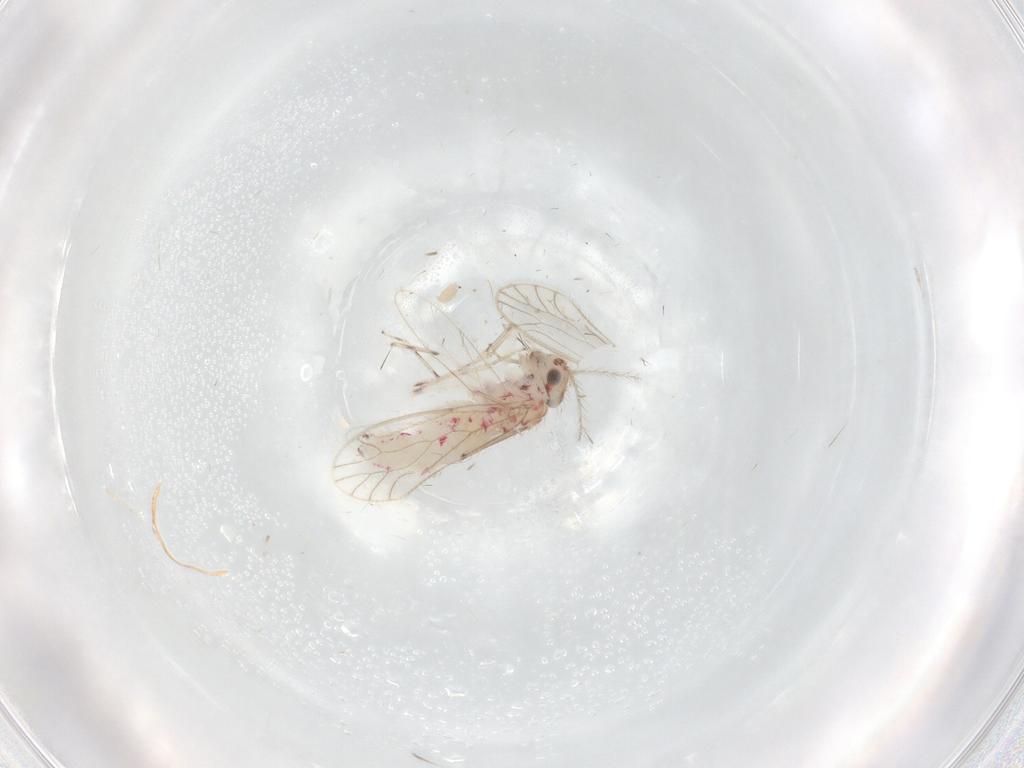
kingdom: Animalia
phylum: Arthropoda
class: Insecta
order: Psocodea
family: Caeciliusidae
